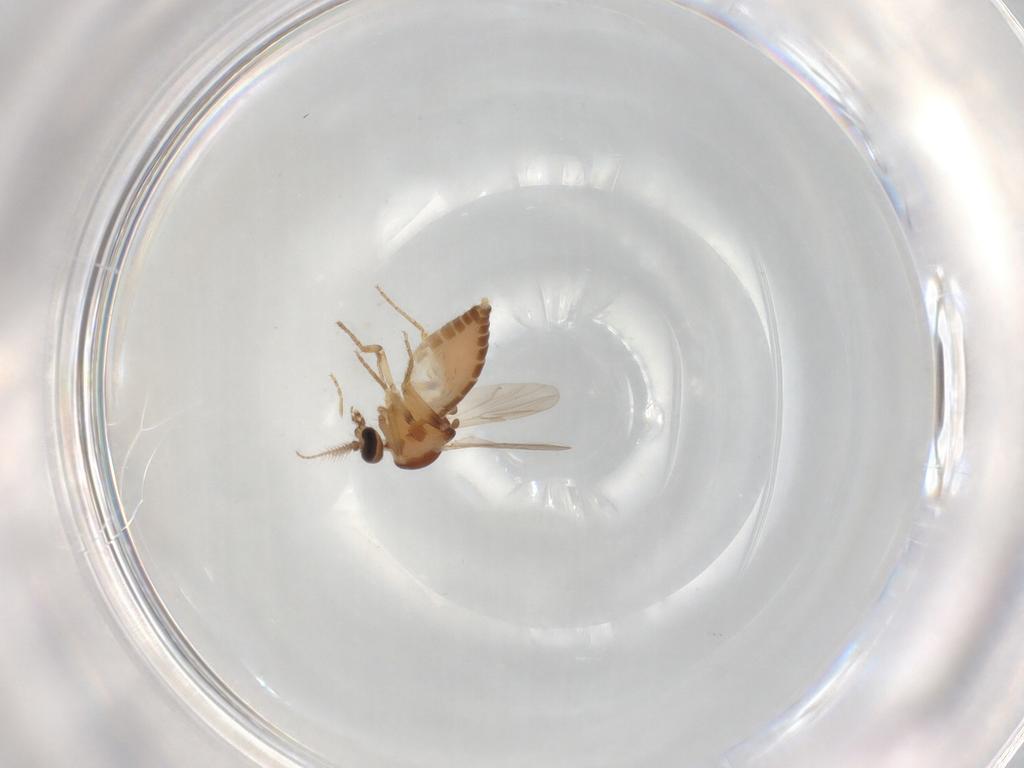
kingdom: Animalia
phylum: Arthropoda
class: Insecta
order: Diptera
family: Ceratopogonidae
